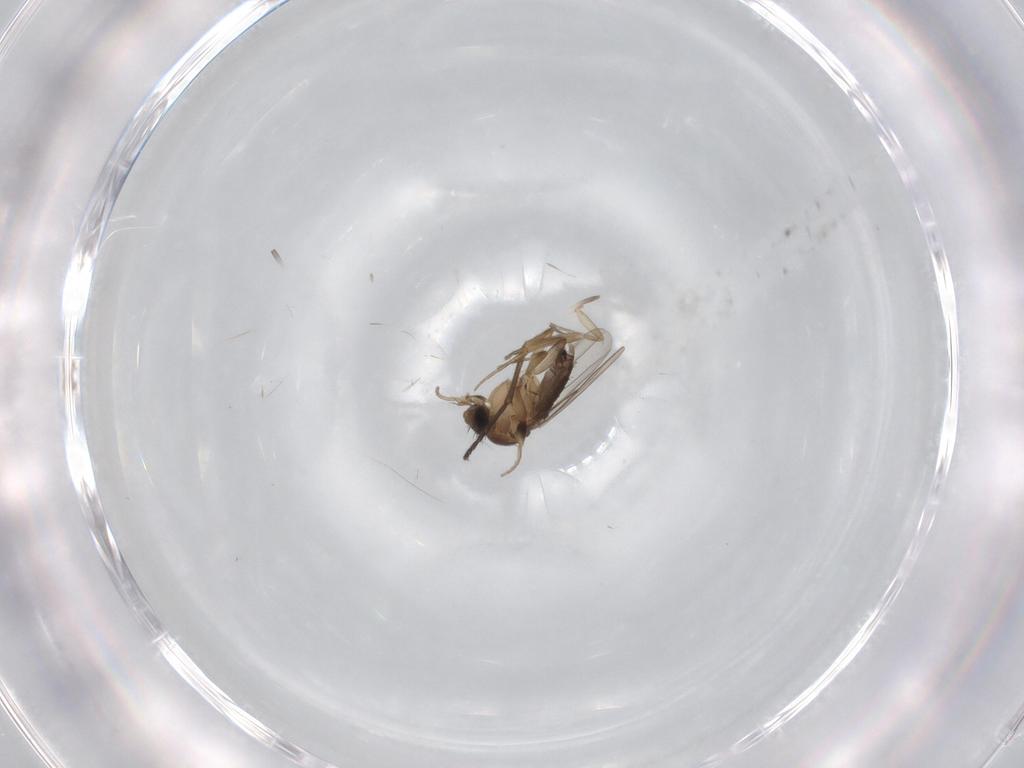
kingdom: Animalia
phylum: Arthropoda
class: Insecta
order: Diptera
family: Phoridae
